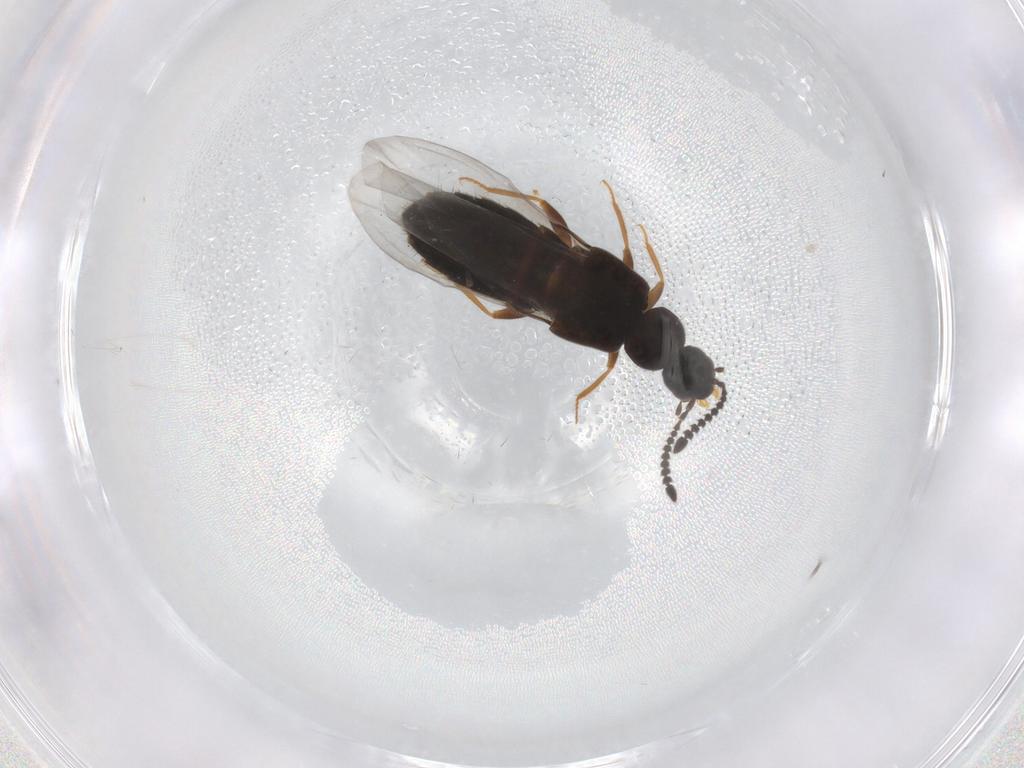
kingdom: Animalia
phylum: Arthropoda
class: Insecta
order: Coleoptera
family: Staphylinidae
